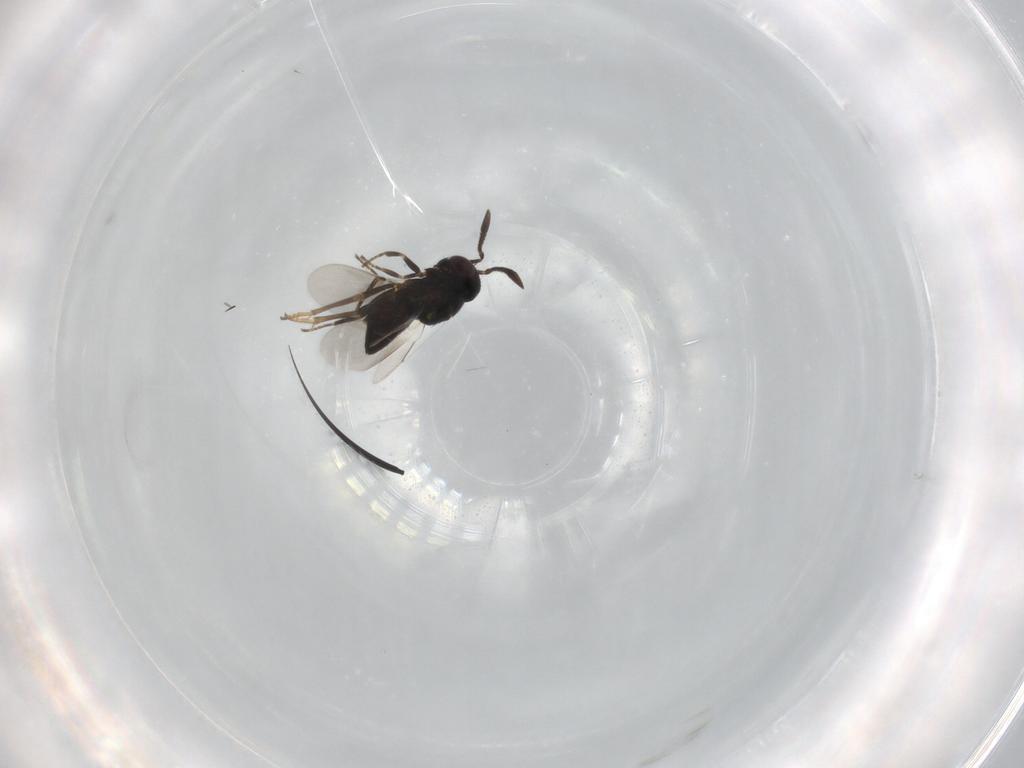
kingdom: Animalia
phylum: Arthropoda
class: Insecta
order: Hymenoptera
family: Encyrtidae
